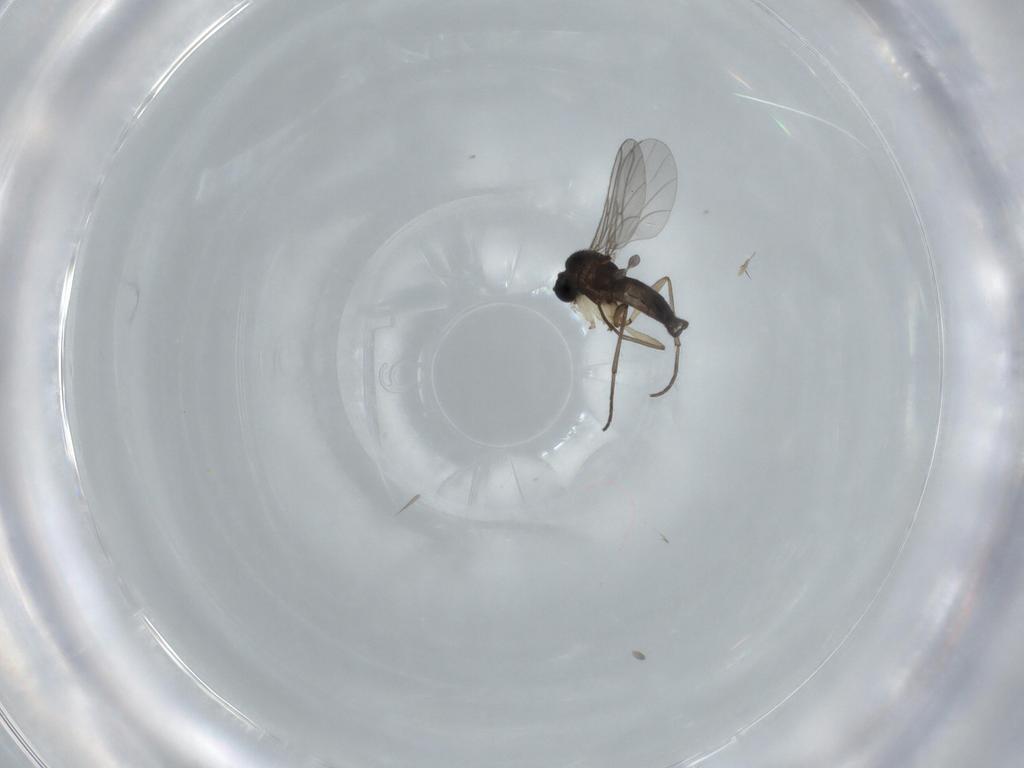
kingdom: Animalia
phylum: Arthropoda
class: Insecta
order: Diptera
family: Sciaridae
